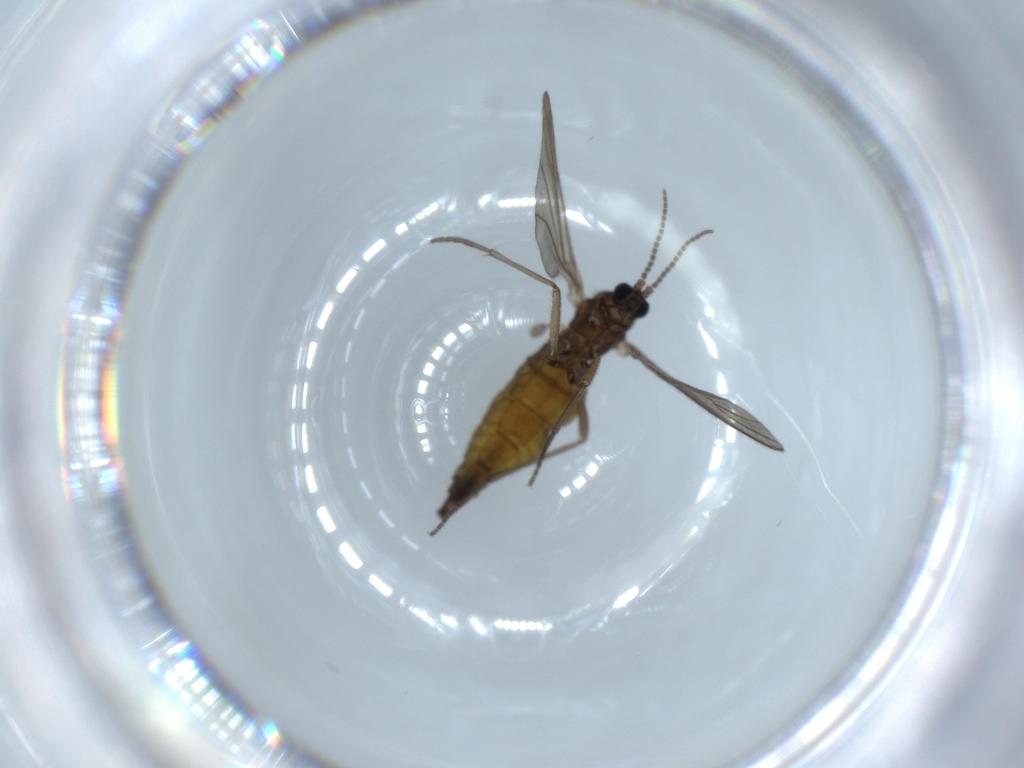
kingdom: Animalia
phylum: Arthropoda
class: Insecta
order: Diptera
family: Sciaridae
